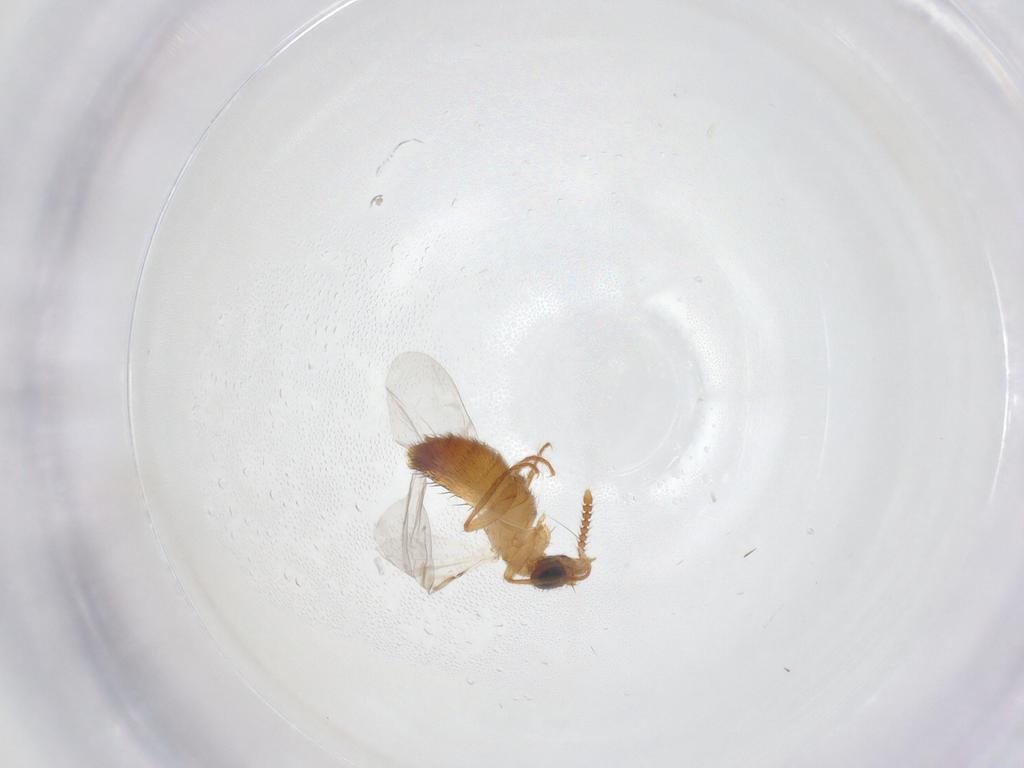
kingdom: Animalia
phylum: Arthropoda
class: Insecta
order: Coleoptera
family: Staphylinidae
